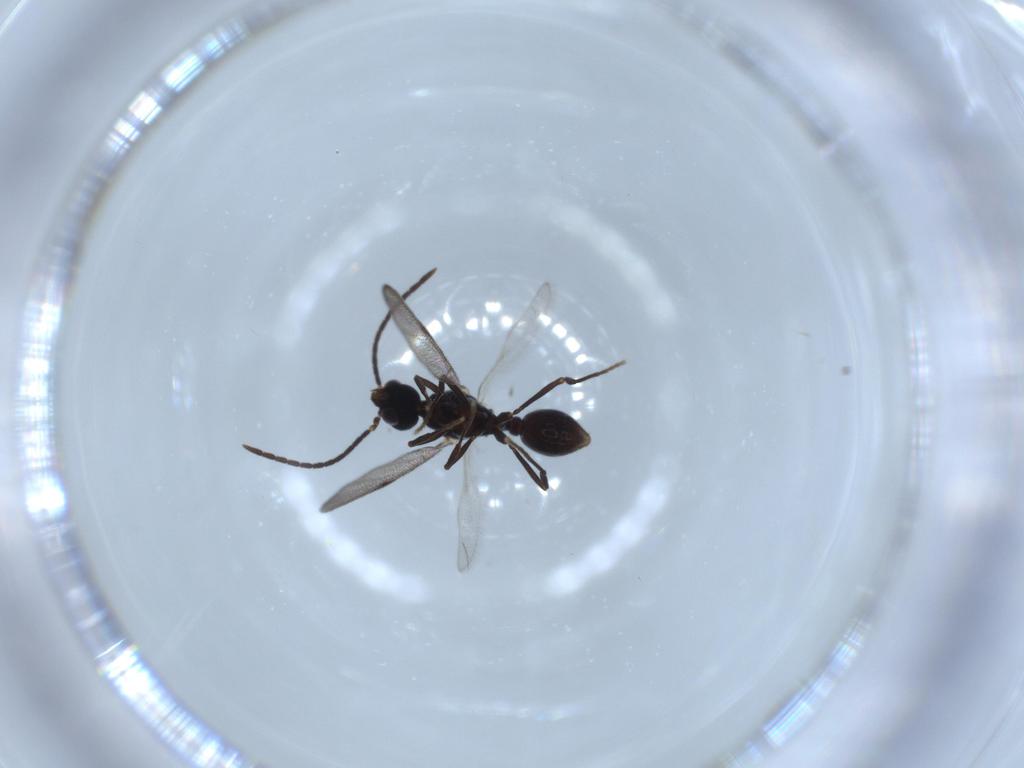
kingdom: Animalia
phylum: Arthropoda
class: Insecta
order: Hymenoptera
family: Formicidae
